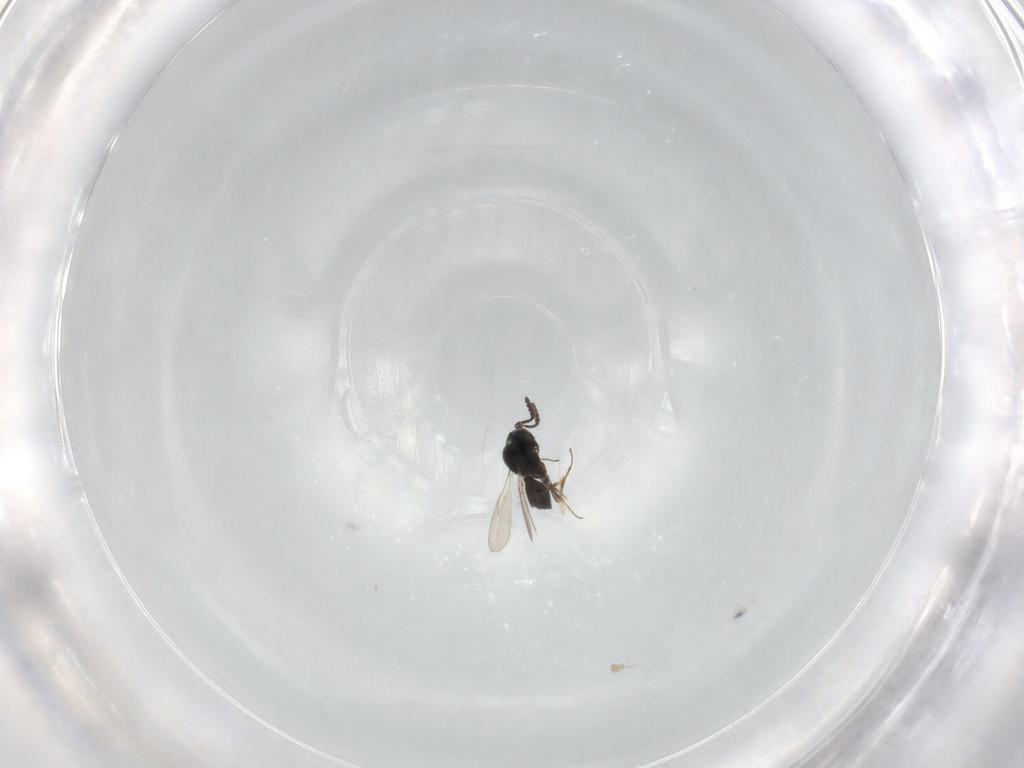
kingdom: Animalia
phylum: Arthropoda
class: Insecta
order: Hymenoptera
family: Scelionidae
